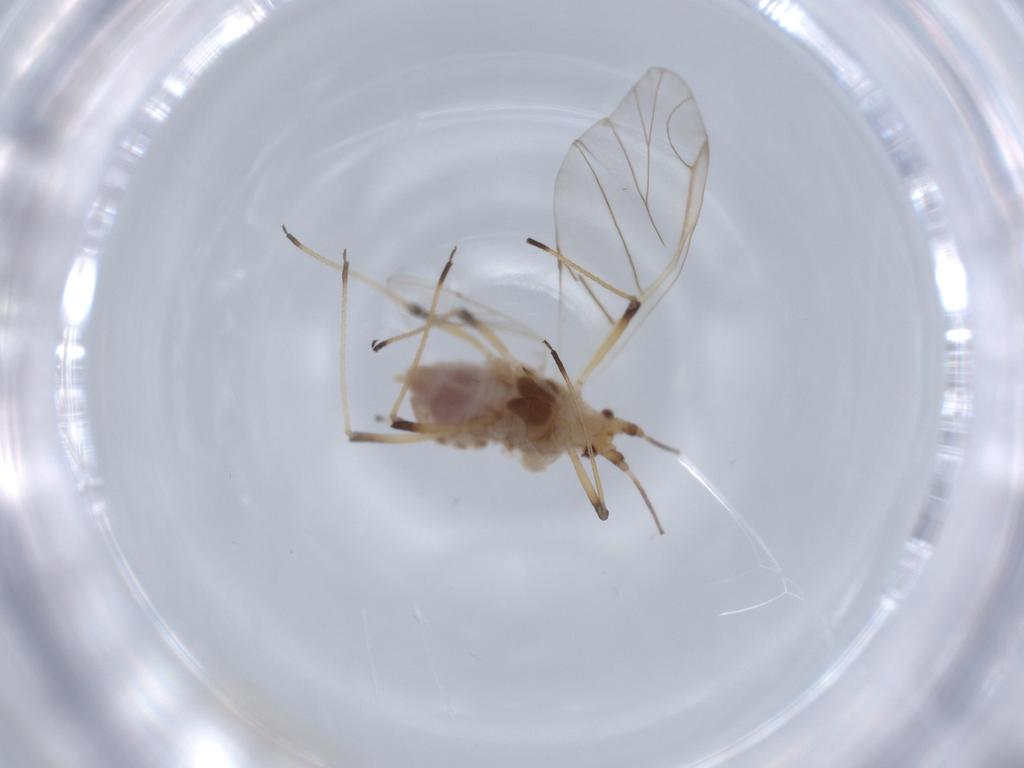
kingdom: Animalia
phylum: Arthropoda
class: Insecta
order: Hemiptera
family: Aphididae
